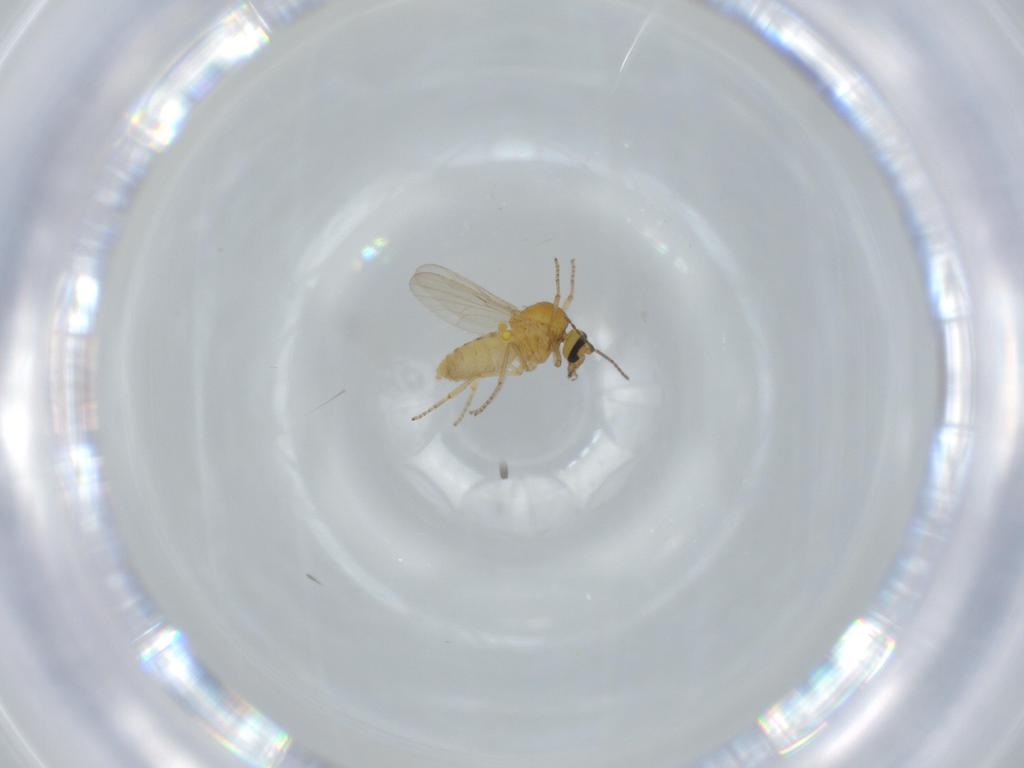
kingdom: Animalia
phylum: Arthropoda
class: Insecta
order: Diptera
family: Ceratopogonidae
